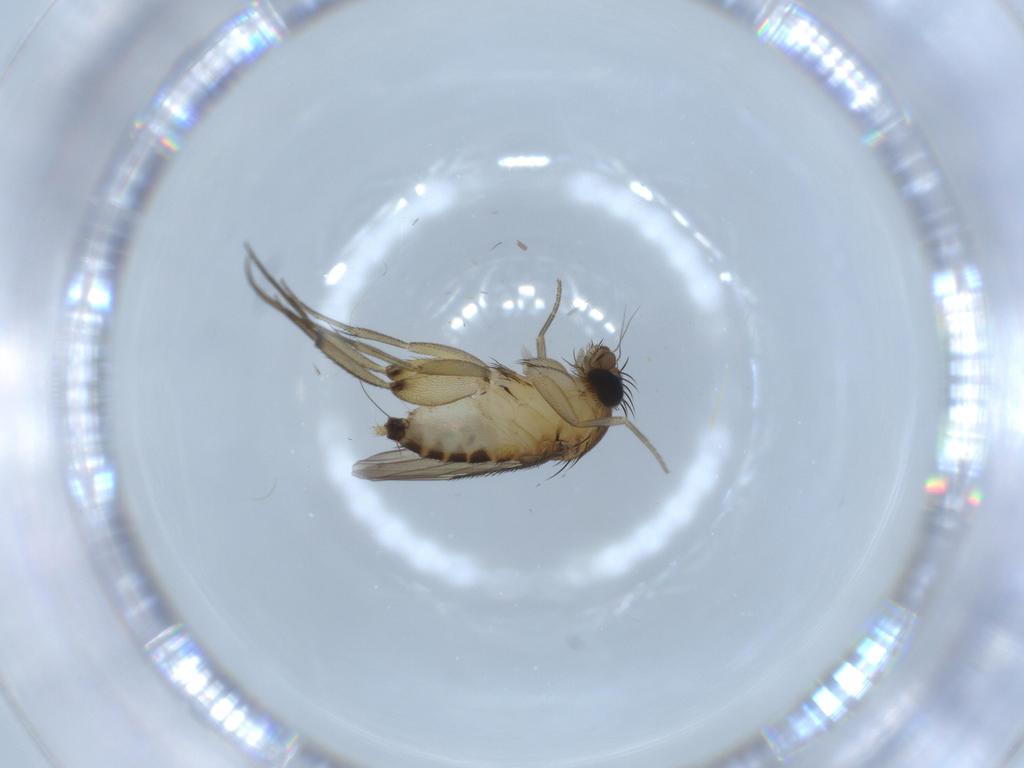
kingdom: Animalia
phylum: Arthropoda
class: Insecta
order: Diptera
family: Phoridae
